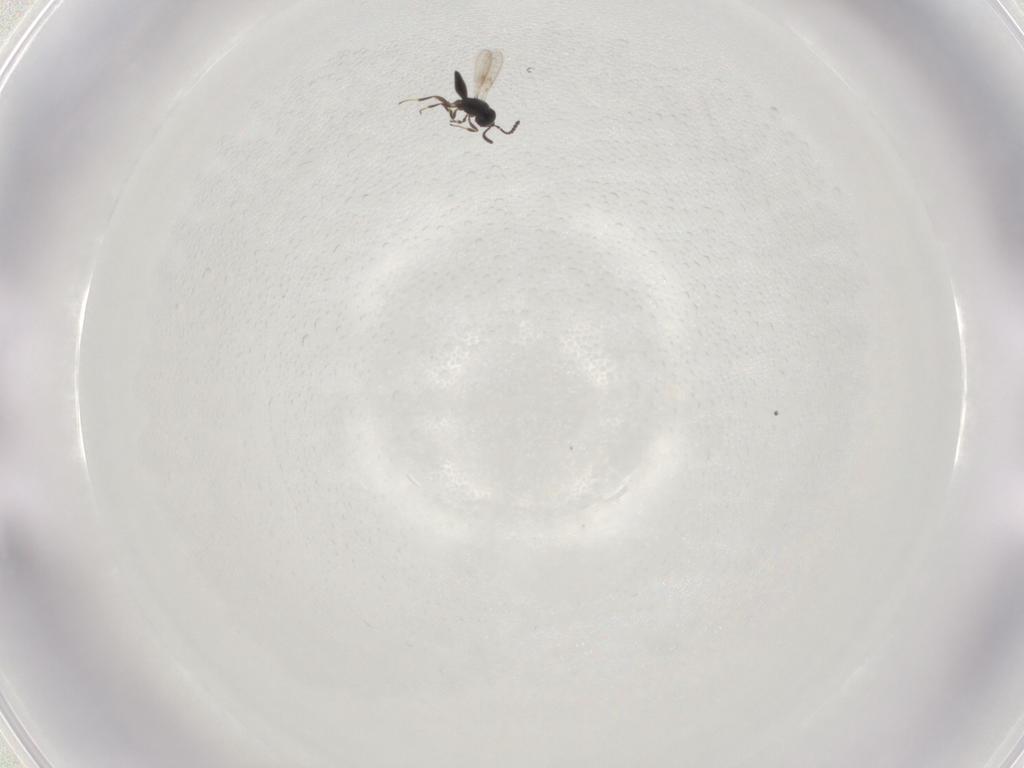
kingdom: Animalia
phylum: Arthropoda
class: Insecta
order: Hymenoptera
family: Scelionidae
